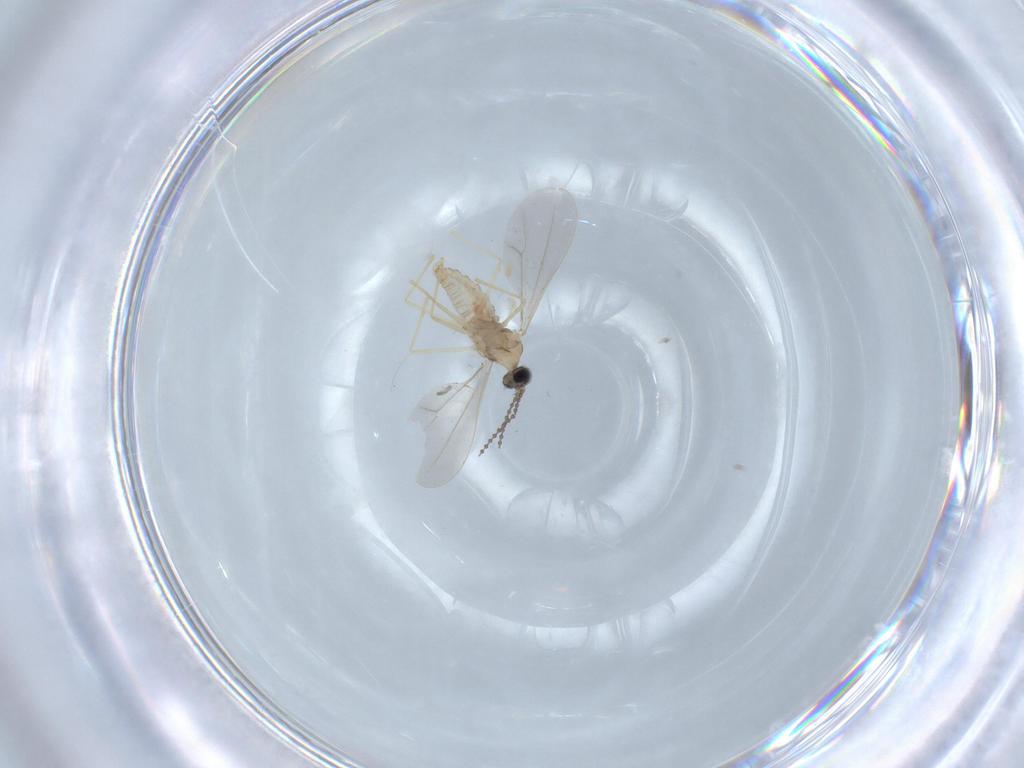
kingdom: Animalia
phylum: Arthropoda
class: Insecta
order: Diptera
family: Cecidomyiidae
